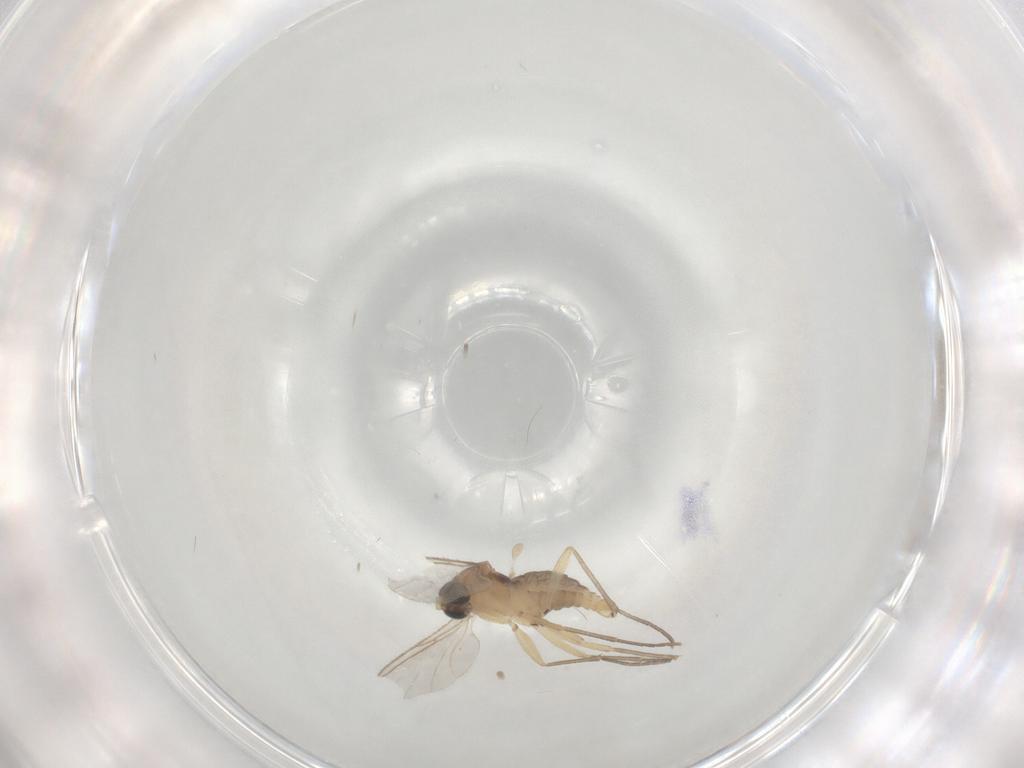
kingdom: Animalia
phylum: Arthropoda
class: Insecta
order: Diptera
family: Sciaridae
